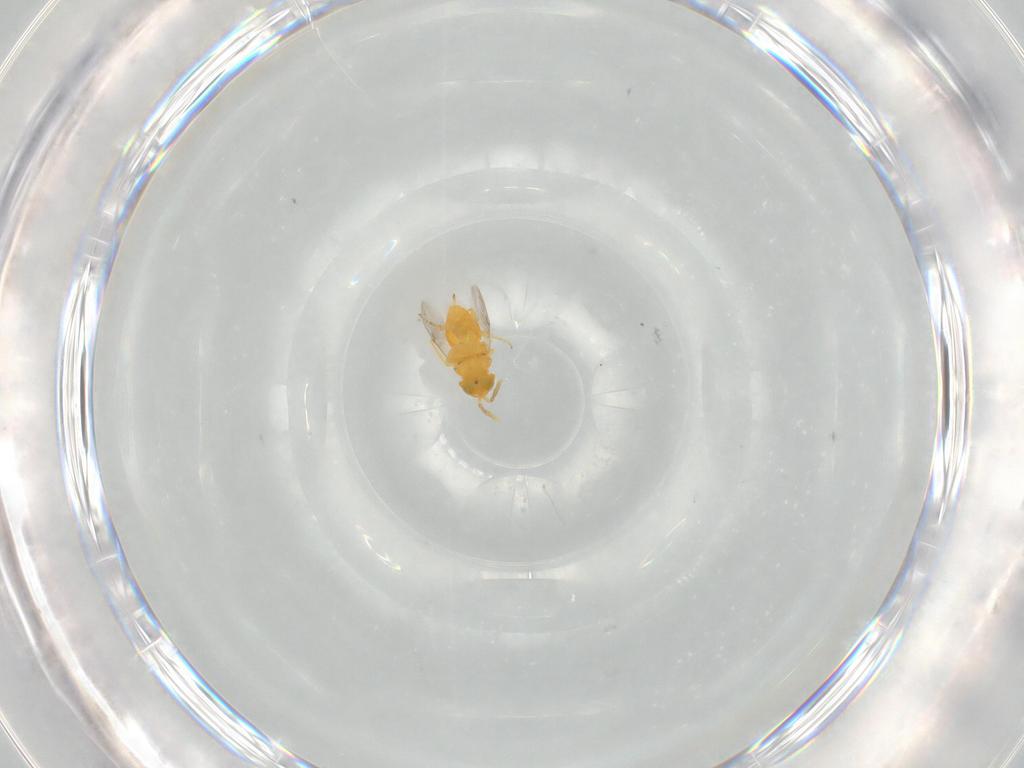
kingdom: Animalia
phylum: Arthropoda
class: Insecta
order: Hymenoptera
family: Encyrtidae
